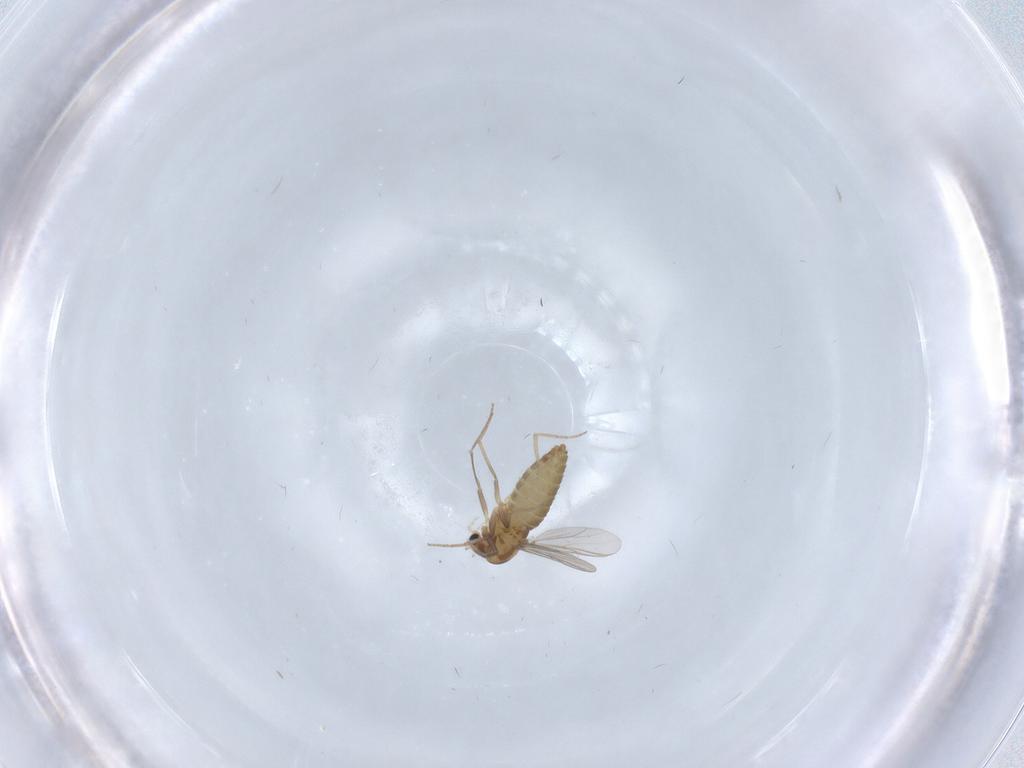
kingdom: Animalia
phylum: Arthropoda
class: Insecta
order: Diptera
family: Chironomidae
